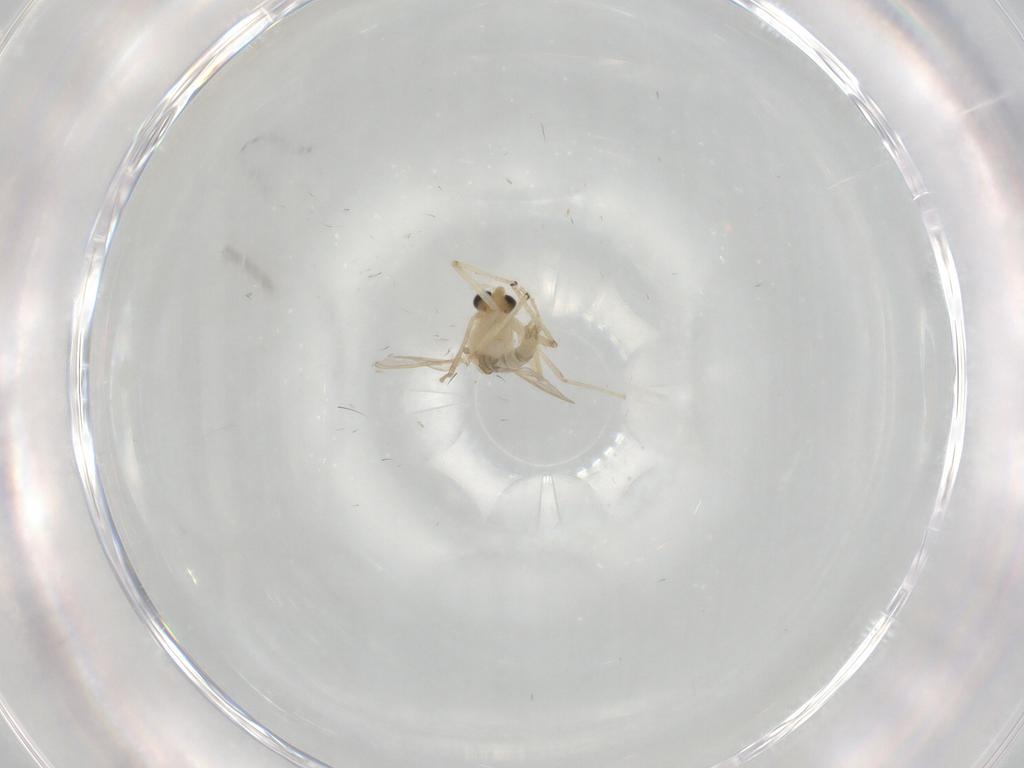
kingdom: Animalia
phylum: Arthropoda
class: Insecta
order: Diptera
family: Chironomidae
